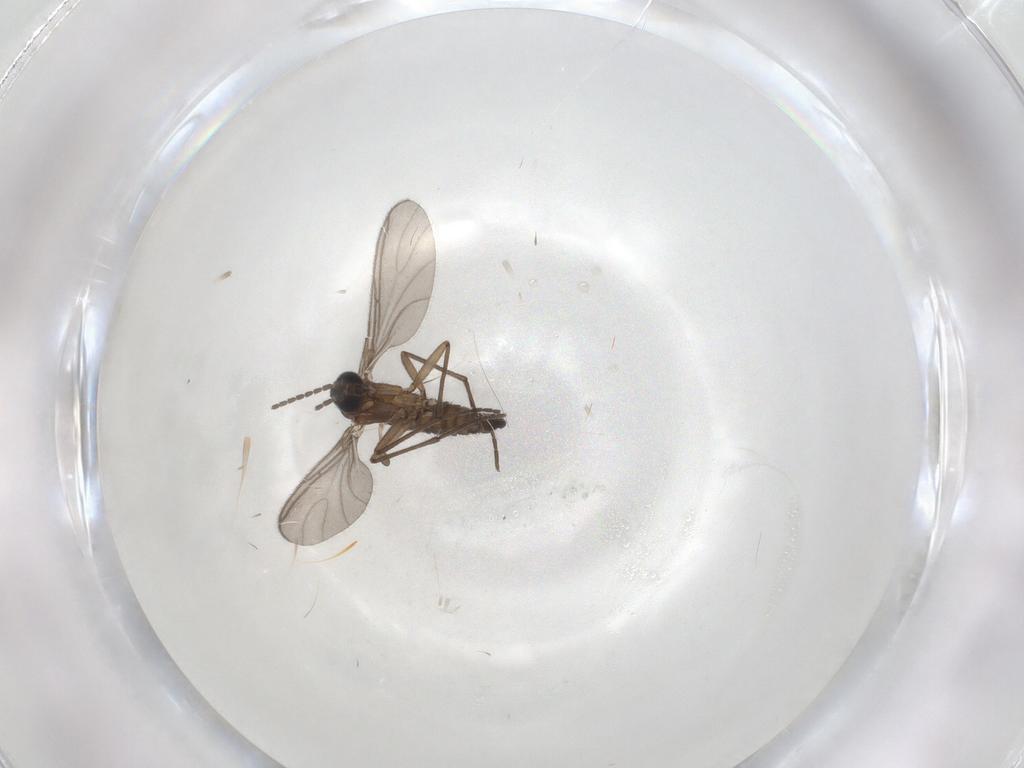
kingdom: Animalia
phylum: Arthropoda
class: Insecta
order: Diptera
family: Sciaridae
